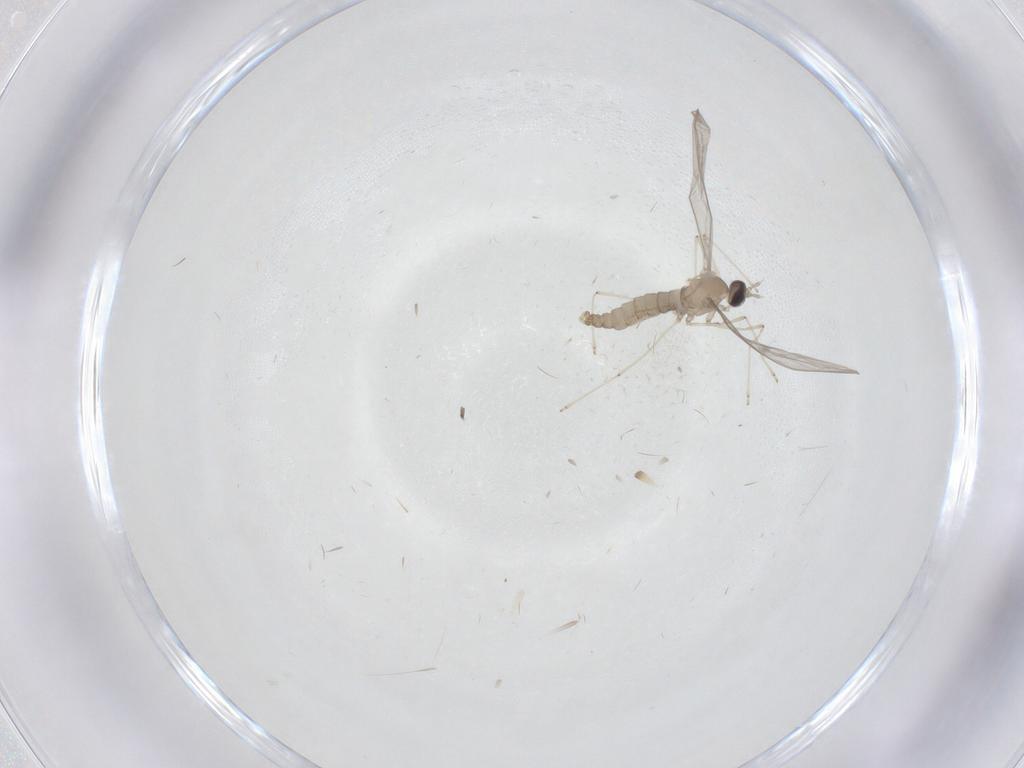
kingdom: Animalia
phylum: Arthropoda
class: Insecta
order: Diptera
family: Cecidomyiidae
